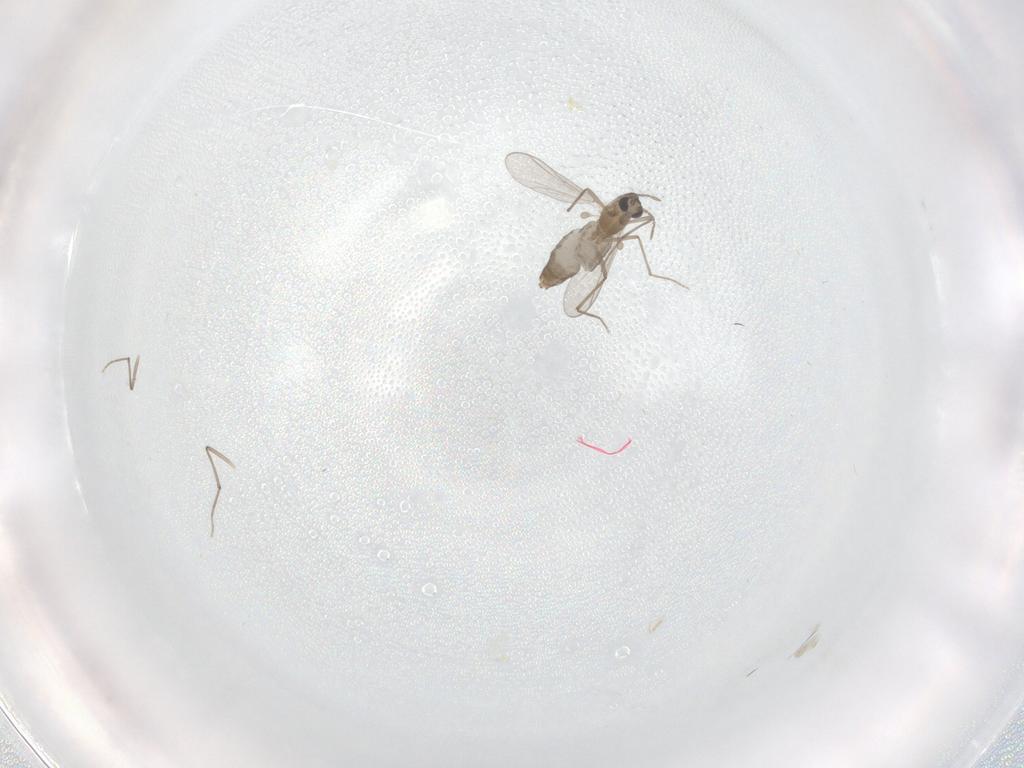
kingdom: Animalia
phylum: Arthropoda
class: Insecta
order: Diptera
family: Chironomidae
